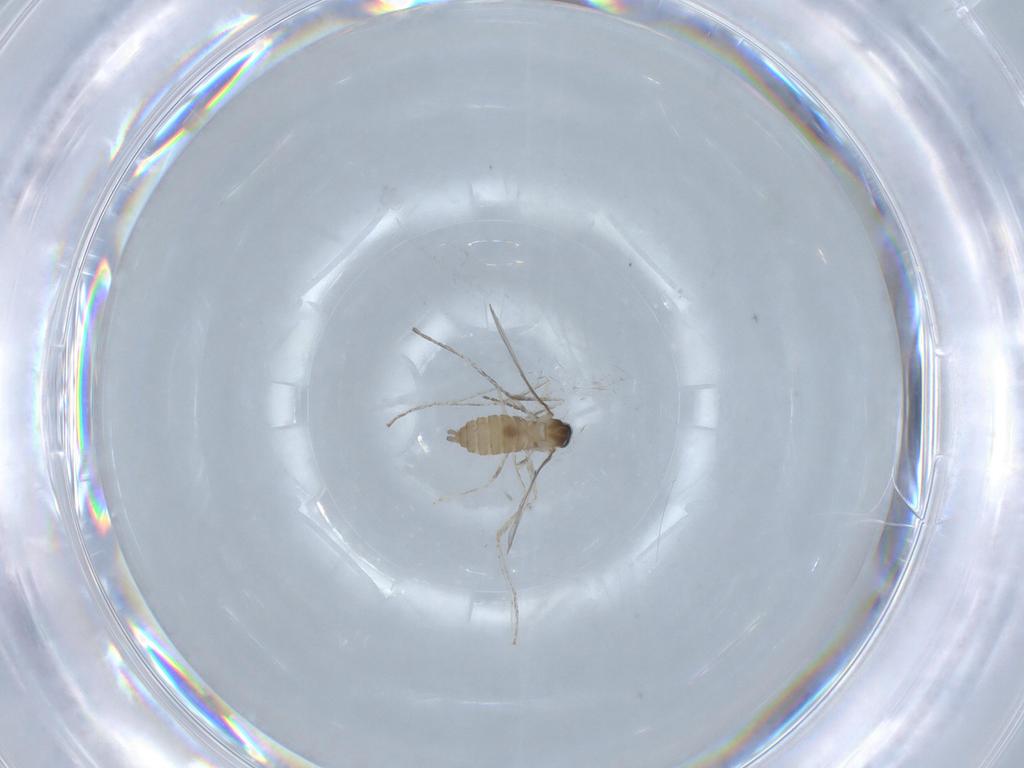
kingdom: Animalia
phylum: Arthropoda
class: Insecta
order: Diptera
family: Cecidomyiidae
